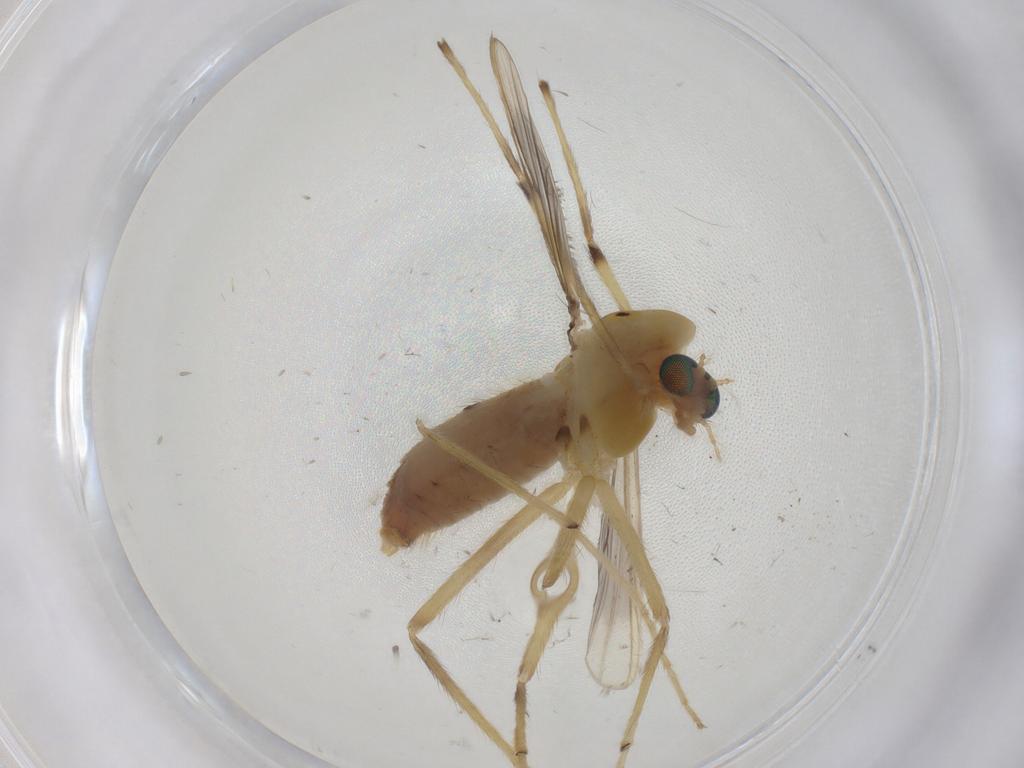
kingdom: Animalia
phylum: Arthropoda
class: Insecta
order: Diptera
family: Chironomidae
